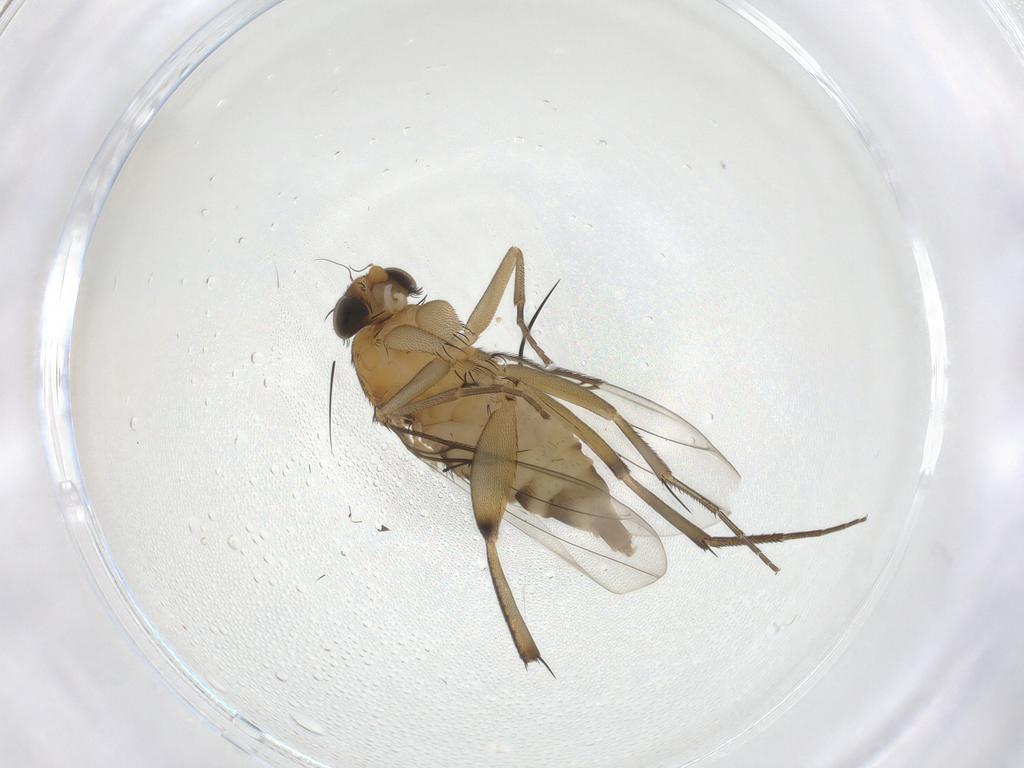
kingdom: Animalia
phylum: Arthropoda
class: Insecta
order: Diptera
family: Phoridae
